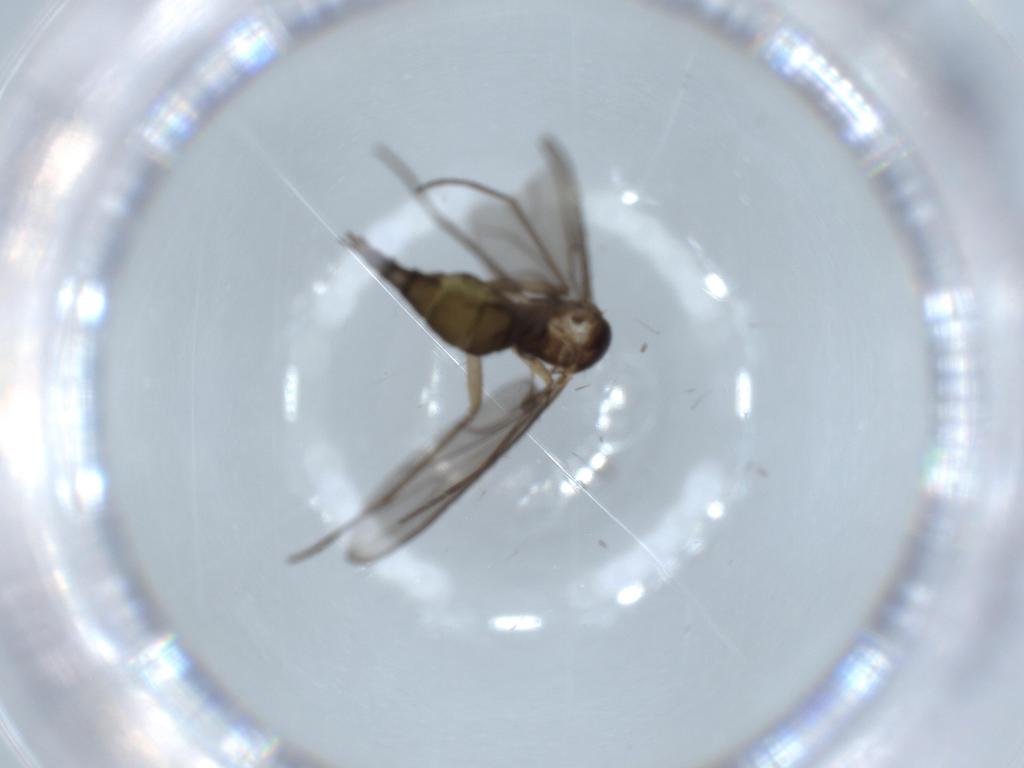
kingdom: Animalia
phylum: Arthropoda
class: Insecta
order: Diptera
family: Sciaridae
